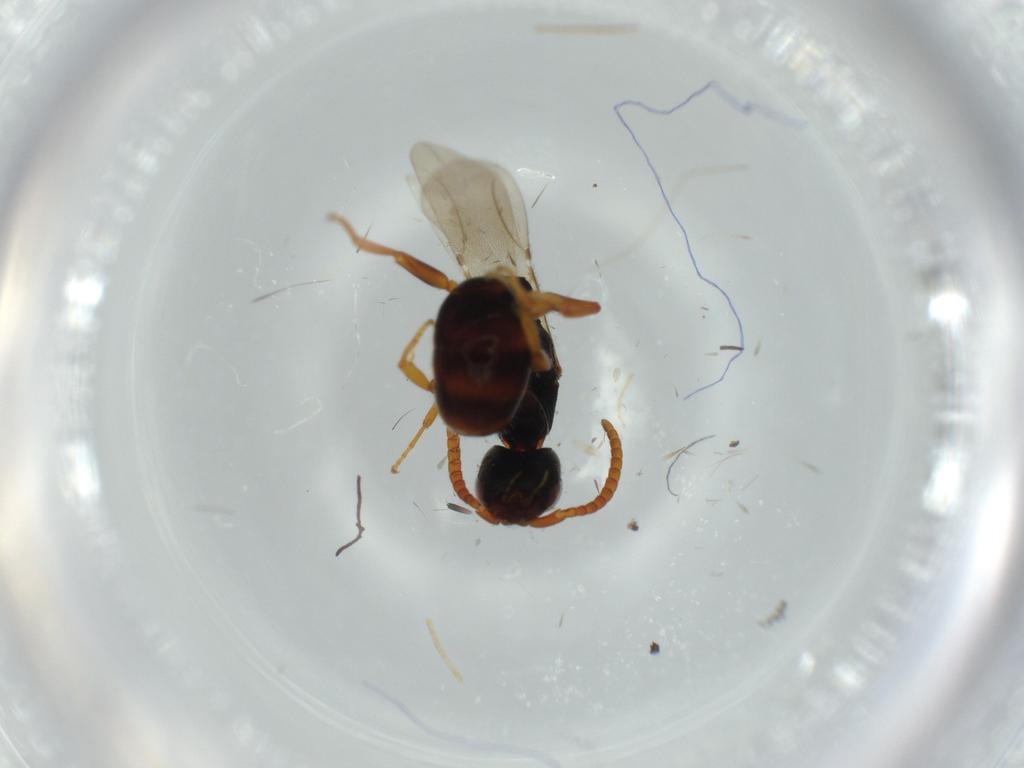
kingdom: Animalia
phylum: Arthropoda
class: Insecta
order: Hymenoptera
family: Bethylidae
